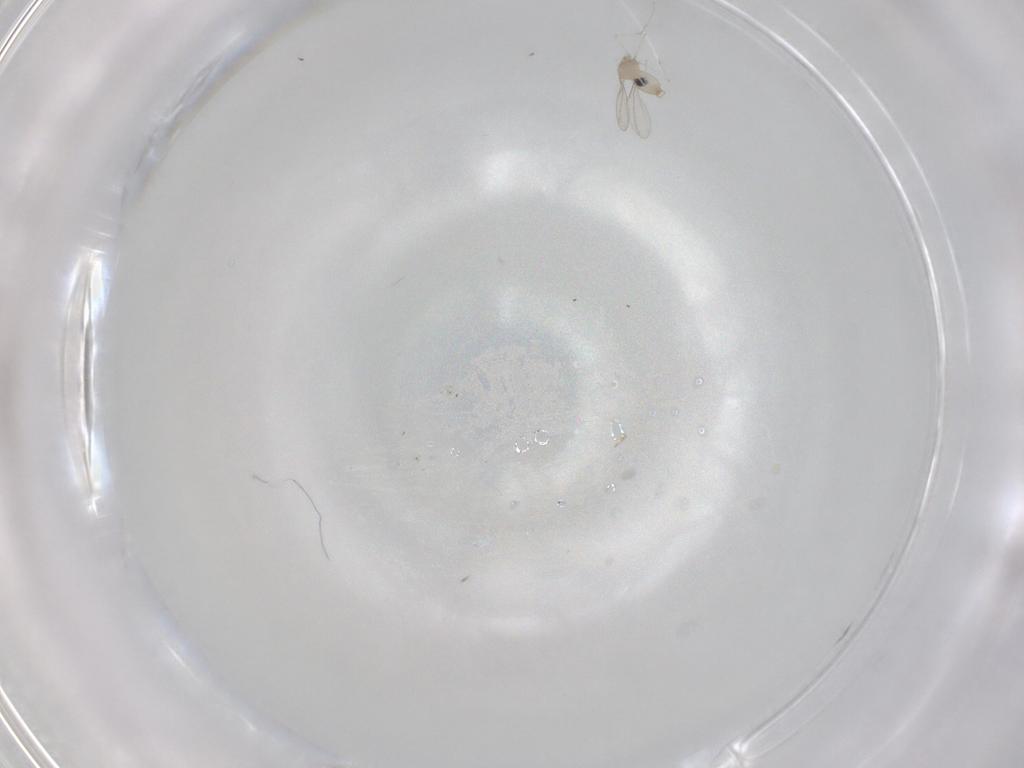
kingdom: Animalia
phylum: Arthropoda
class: Insecta
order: Diptera
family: Cecidomyiidae
